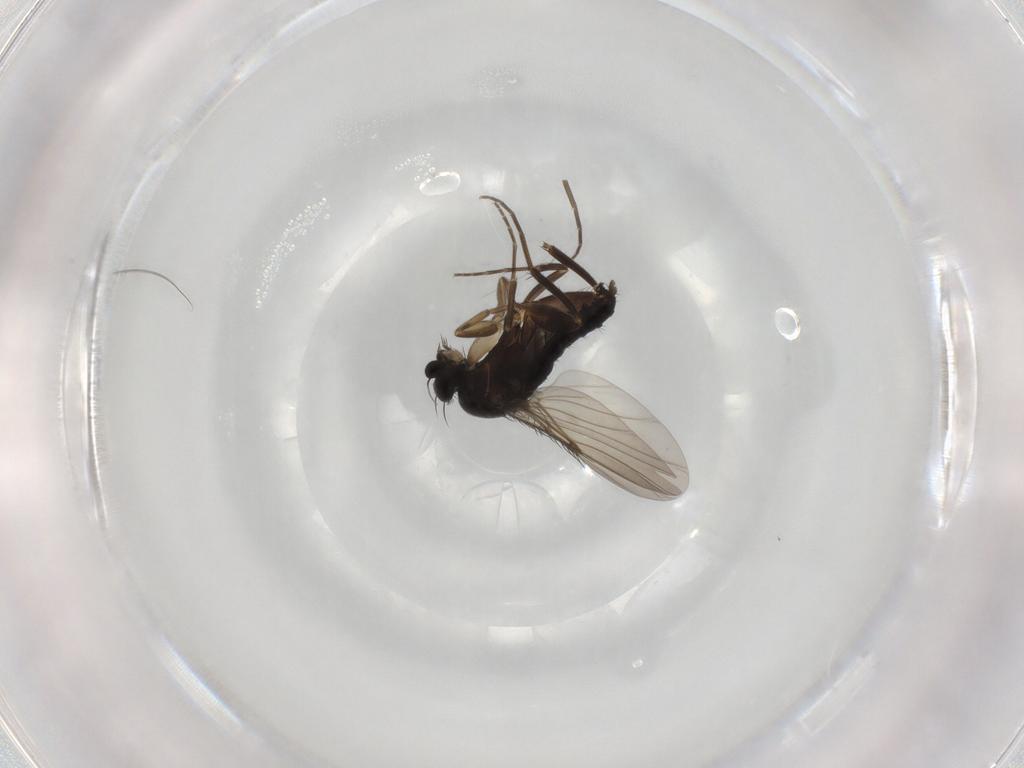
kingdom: Animalia
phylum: Arthropoda
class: Insecta
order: Diptera
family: Phoridae
